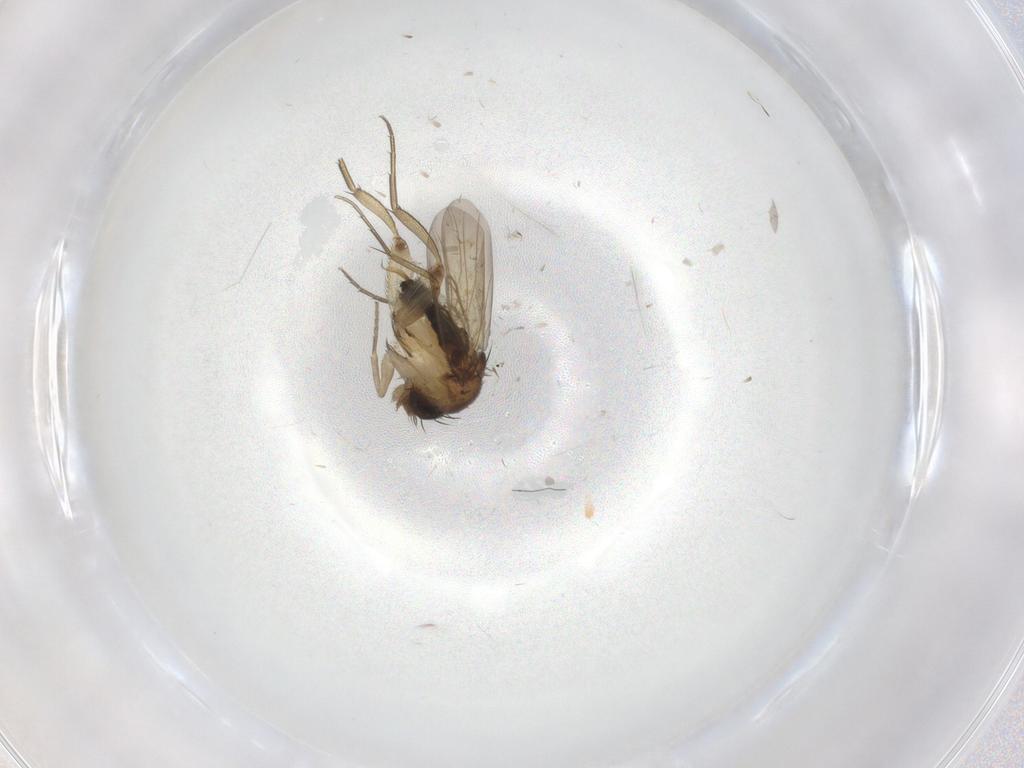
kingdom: Animalia
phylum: Arthropoda
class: Insecta
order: Diptera
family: Phoridae
